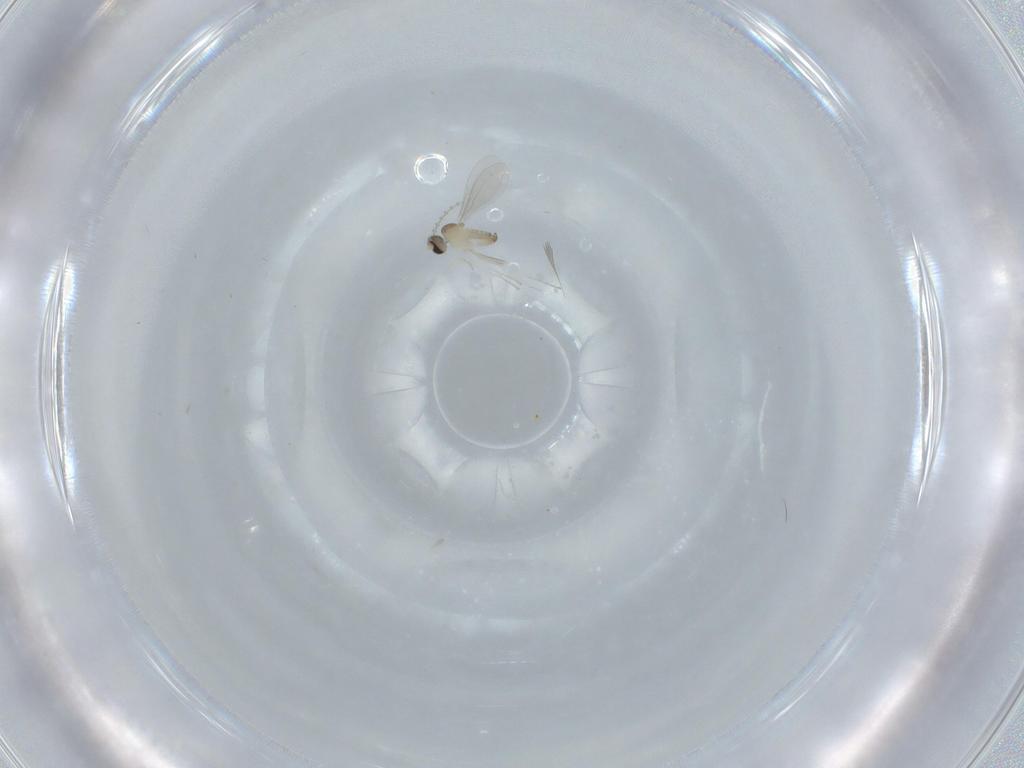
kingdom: Animalia
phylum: Arthropoda
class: Insecta
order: Diptera
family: Cecidomyiidae
